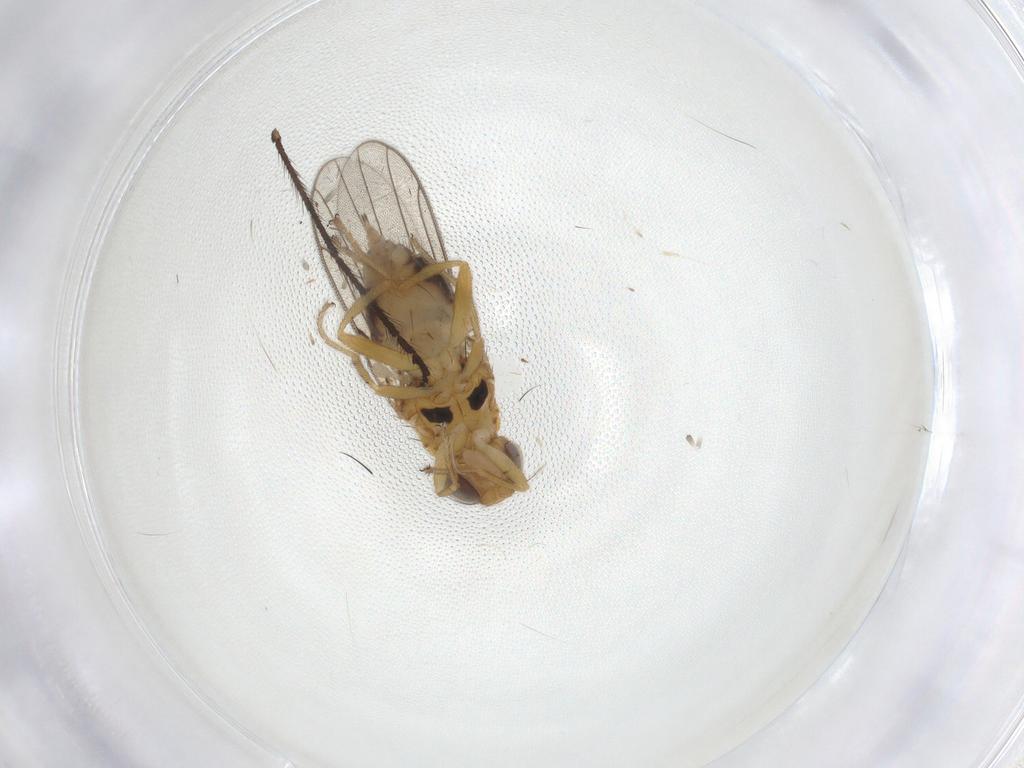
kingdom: Animalia
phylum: Arthropoda
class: Insecta
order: Diptera
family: Chloropidae
